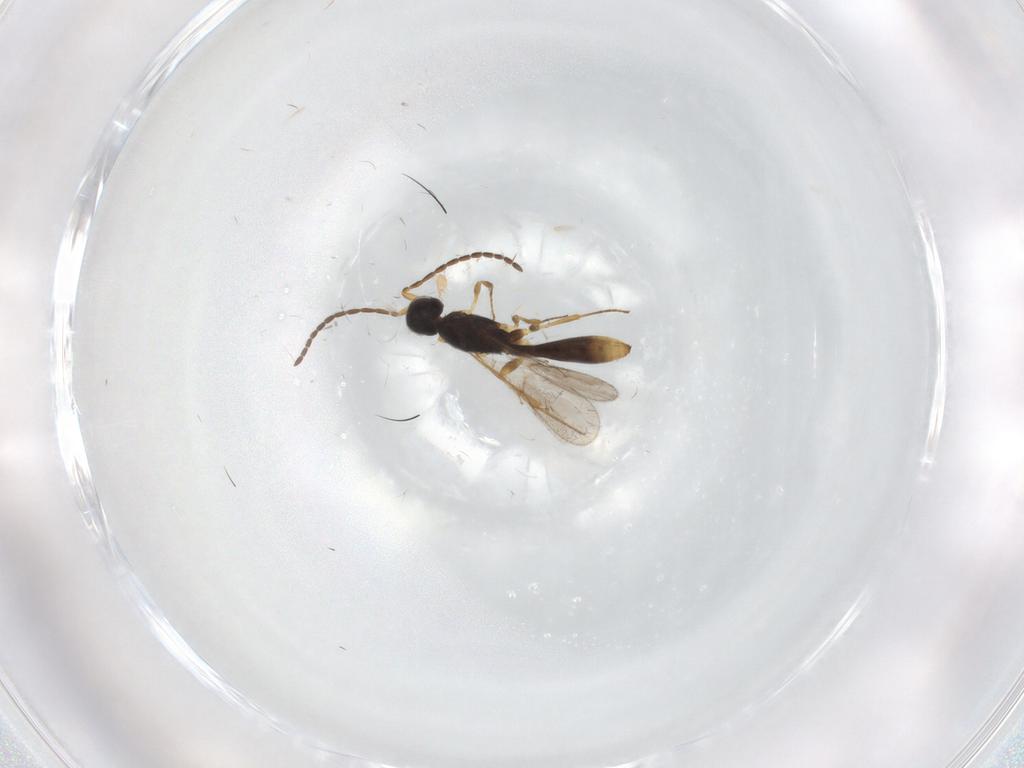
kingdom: Animalia
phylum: Arthropoda
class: Insecta
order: Hymenoptera
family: Scelionidae
